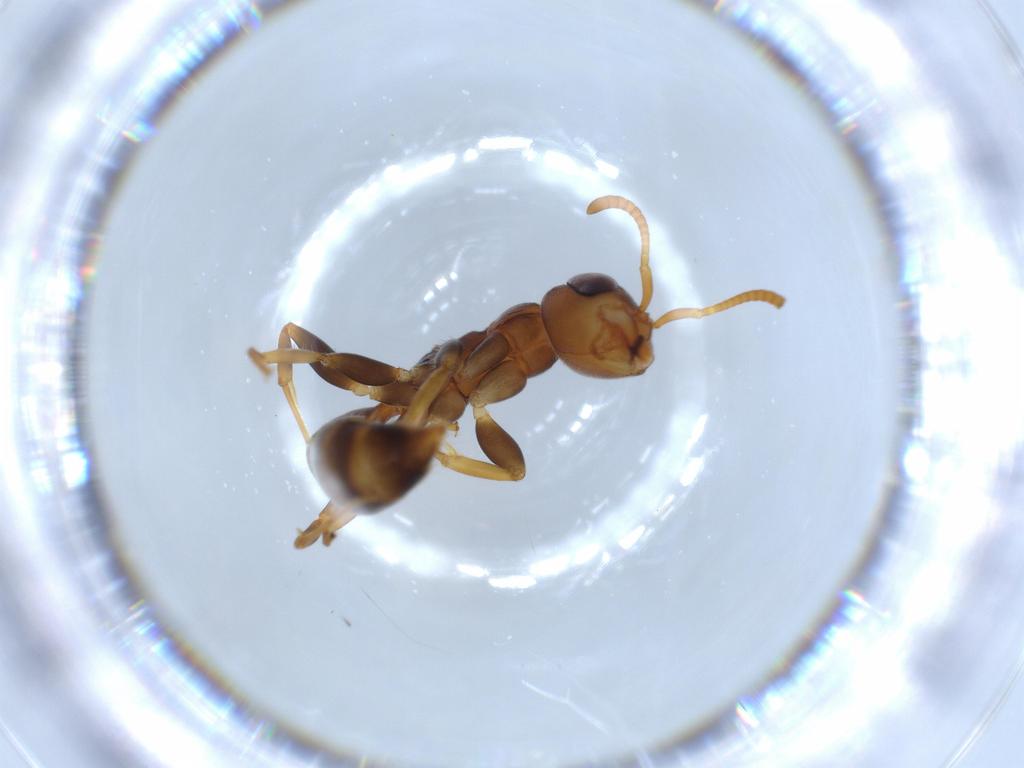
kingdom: Animalia
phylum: Arthropoda
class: Insecta
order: Hymenoptera
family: Formicidae
